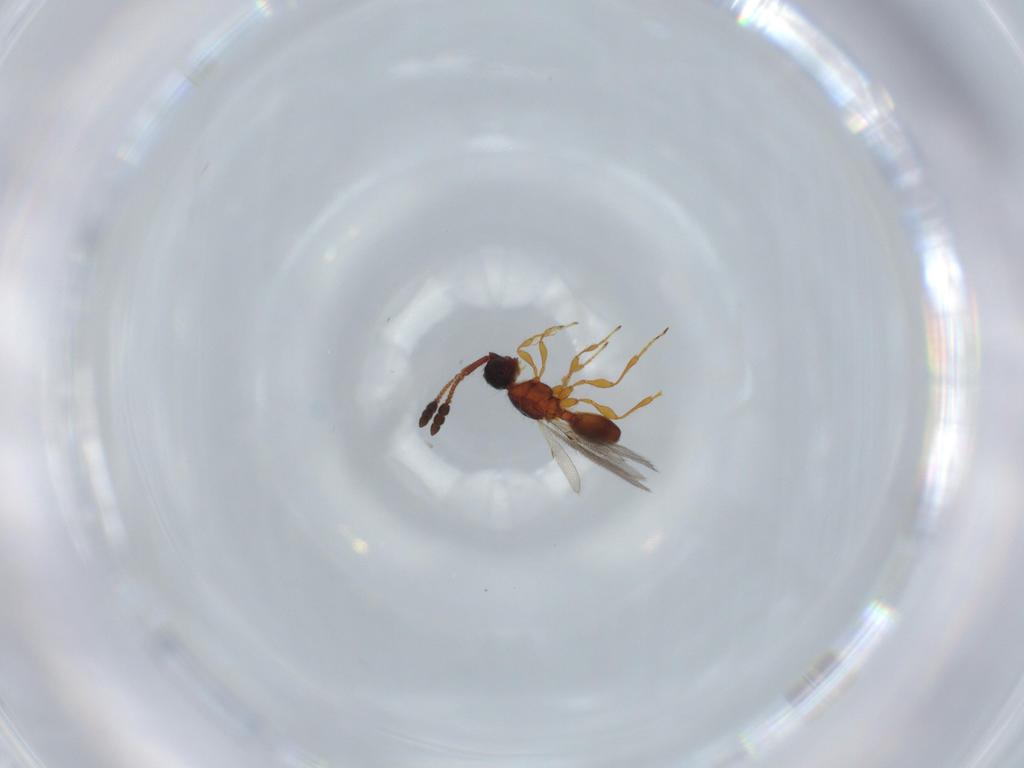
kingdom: Animalia
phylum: Arthropoda
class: Insecta
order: Hymenoptera
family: Diapriidae
